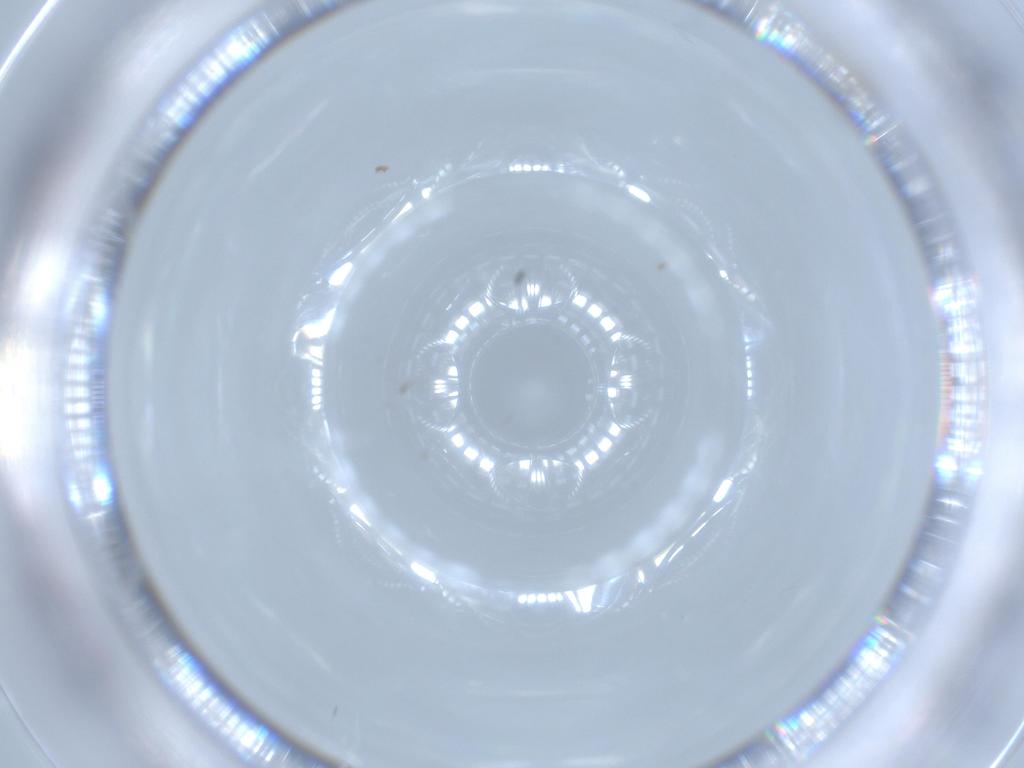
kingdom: Animalia
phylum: Arthropoda
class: Insecta
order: Diptera
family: Cecidomyiidae
